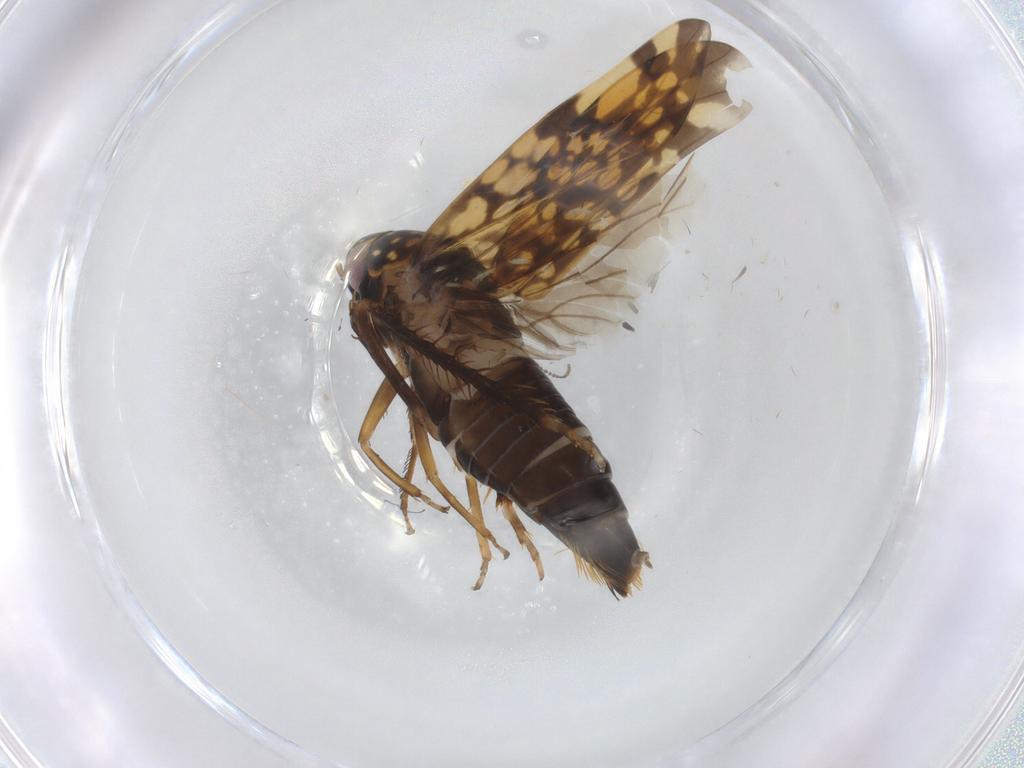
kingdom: Animalia
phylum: Arthropoda
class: Insecta
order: Hemiptera
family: Cicadellidae
